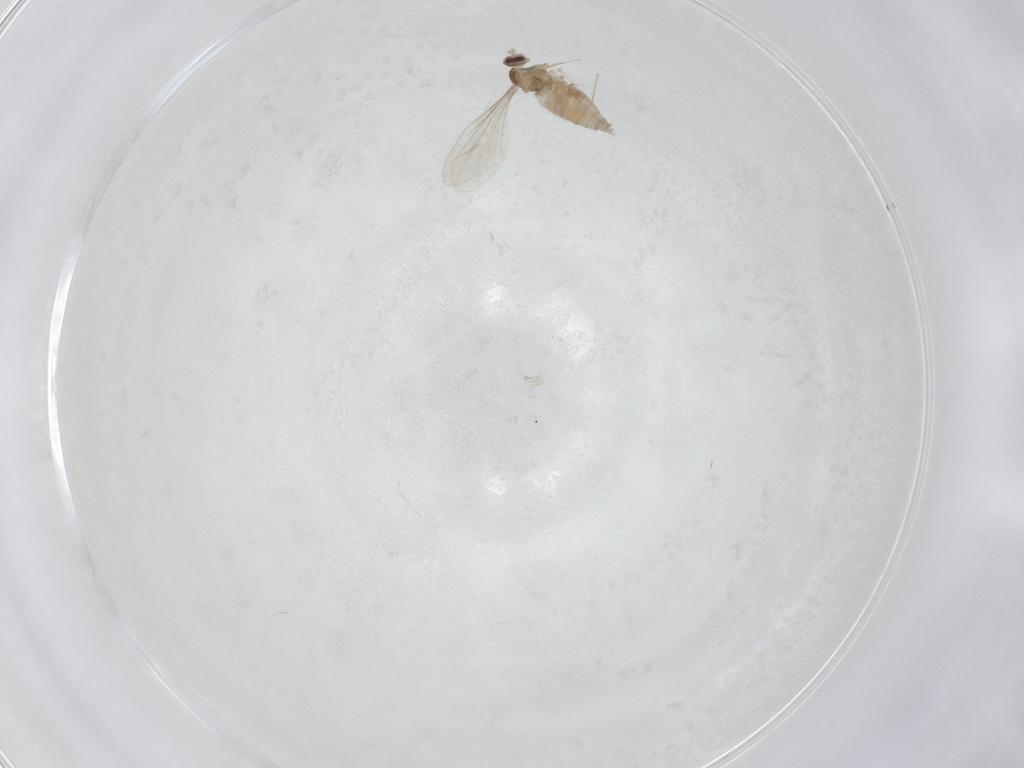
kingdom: Animalia
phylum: Arthropoda
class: Insecta
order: Diptera
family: Cecidomyiidae
